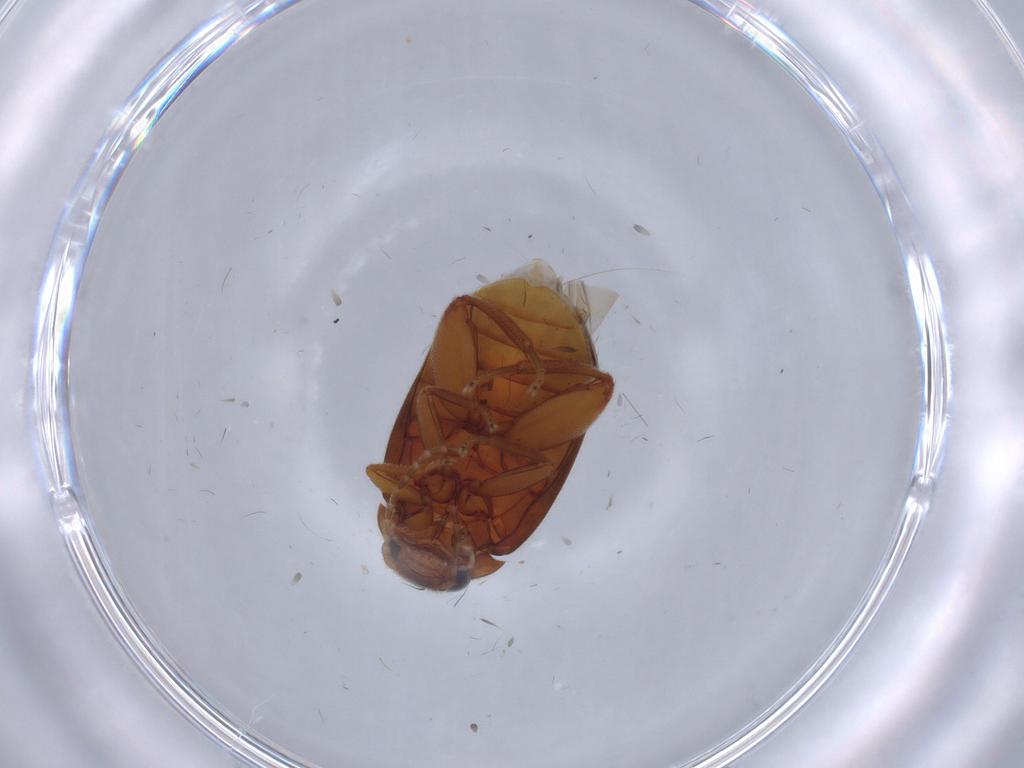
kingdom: Animalia
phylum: Arthropoda
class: Insecta
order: Coleoptera
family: Scirtidae
